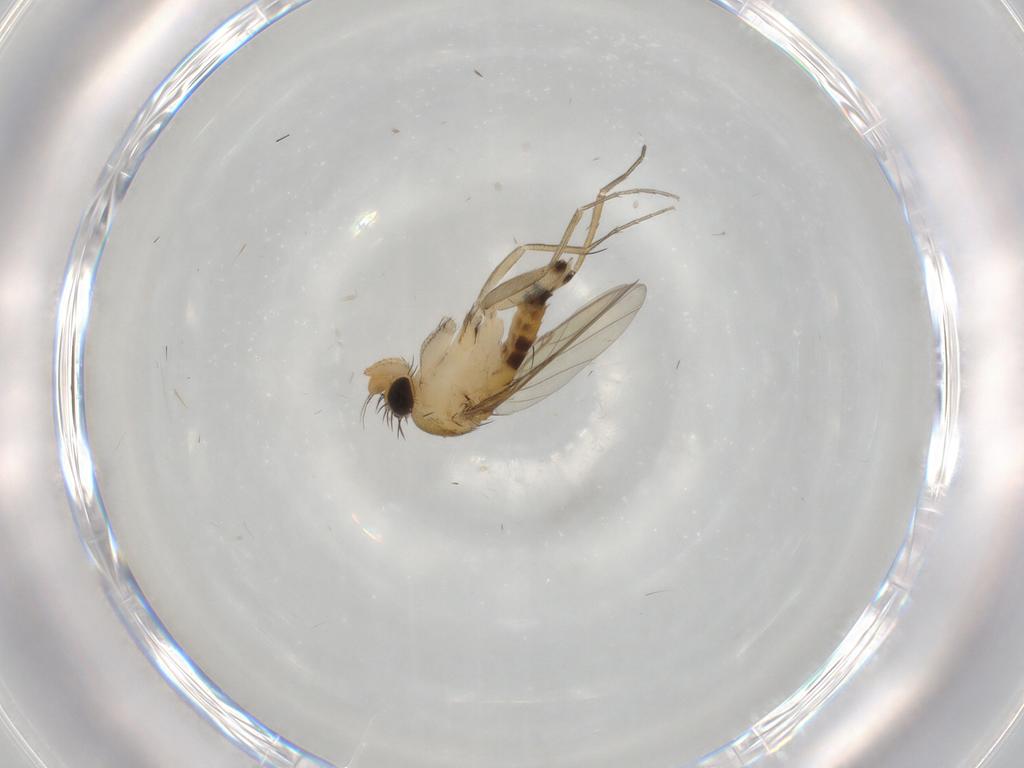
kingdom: Animalia
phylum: Arthropoda
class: Insecta
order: Diptera
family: Phoridae
